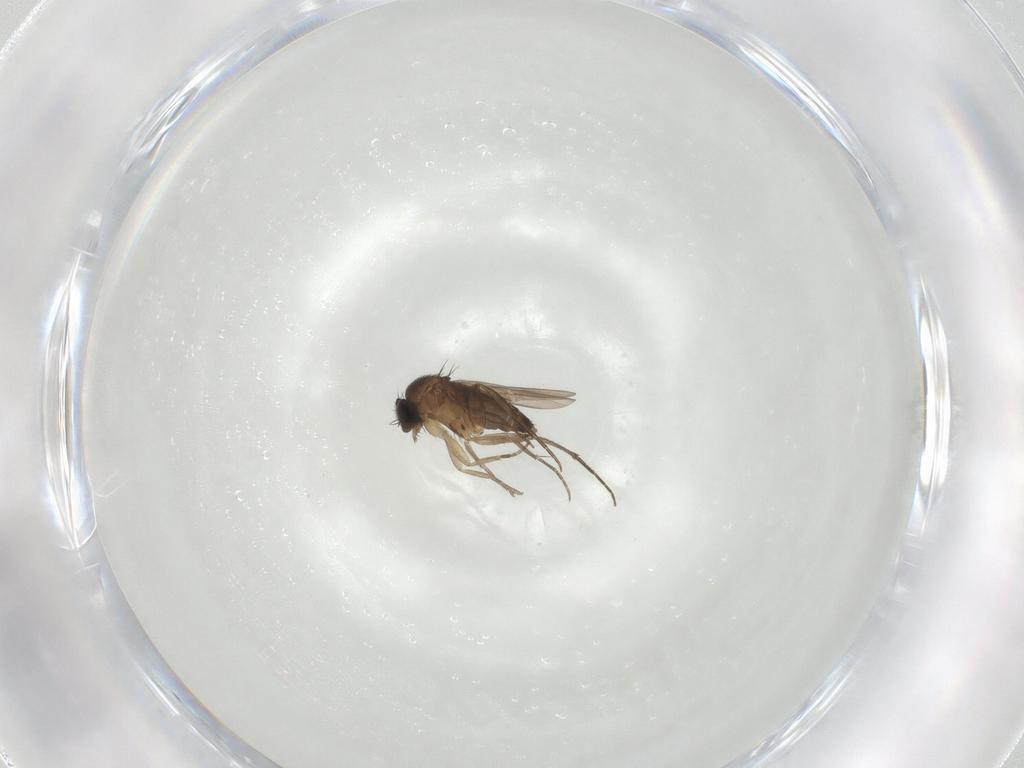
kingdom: Animalia
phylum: Arthropoda
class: Insecta
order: Diptera
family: Phoridae
